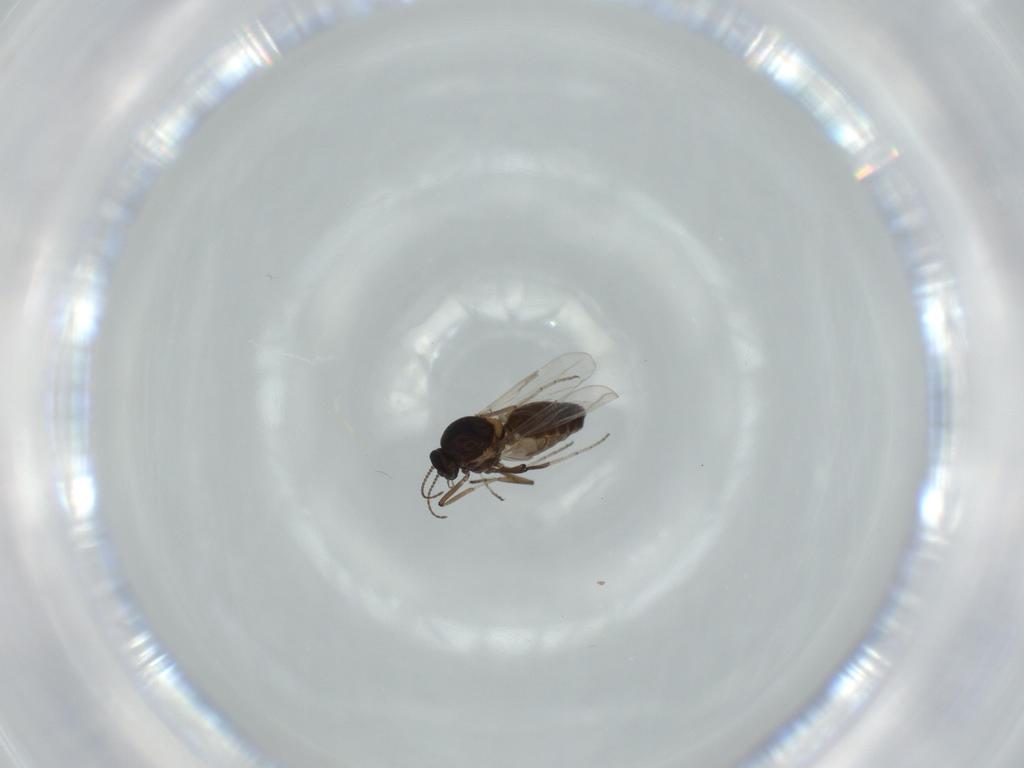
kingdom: Animalia
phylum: Arthropoda
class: Insecta
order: Diptera
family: Ceratopogonidae
